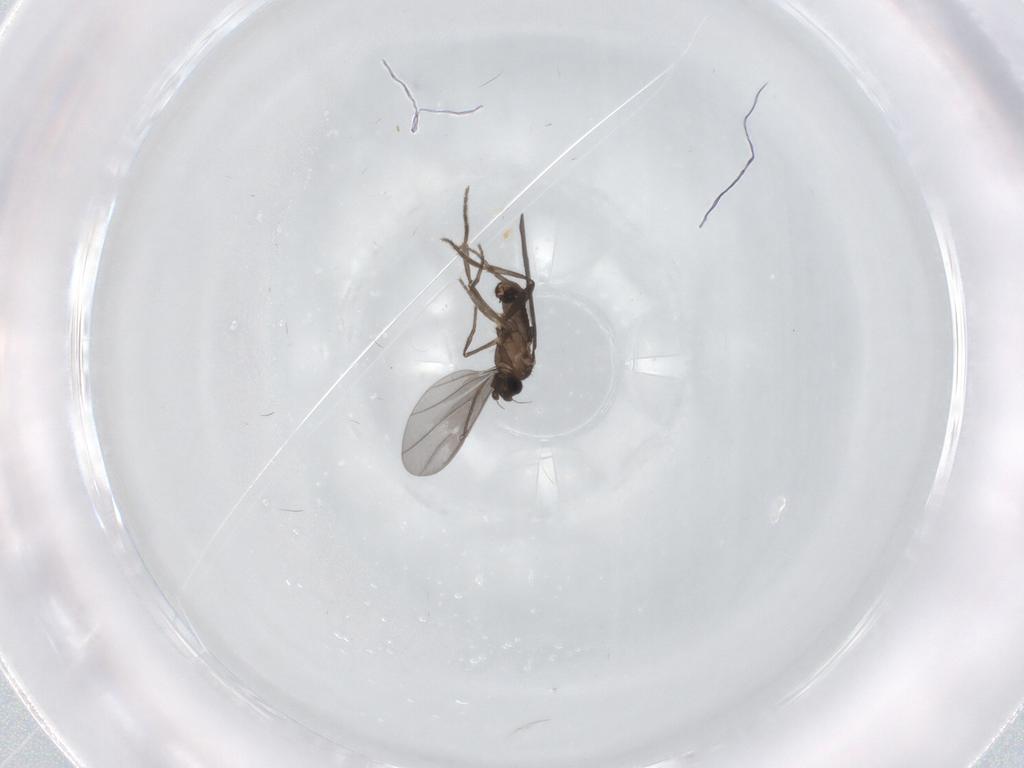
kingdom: Animalia
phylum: Arthropoda
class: Insecta
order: Diptera
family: Phoridae
